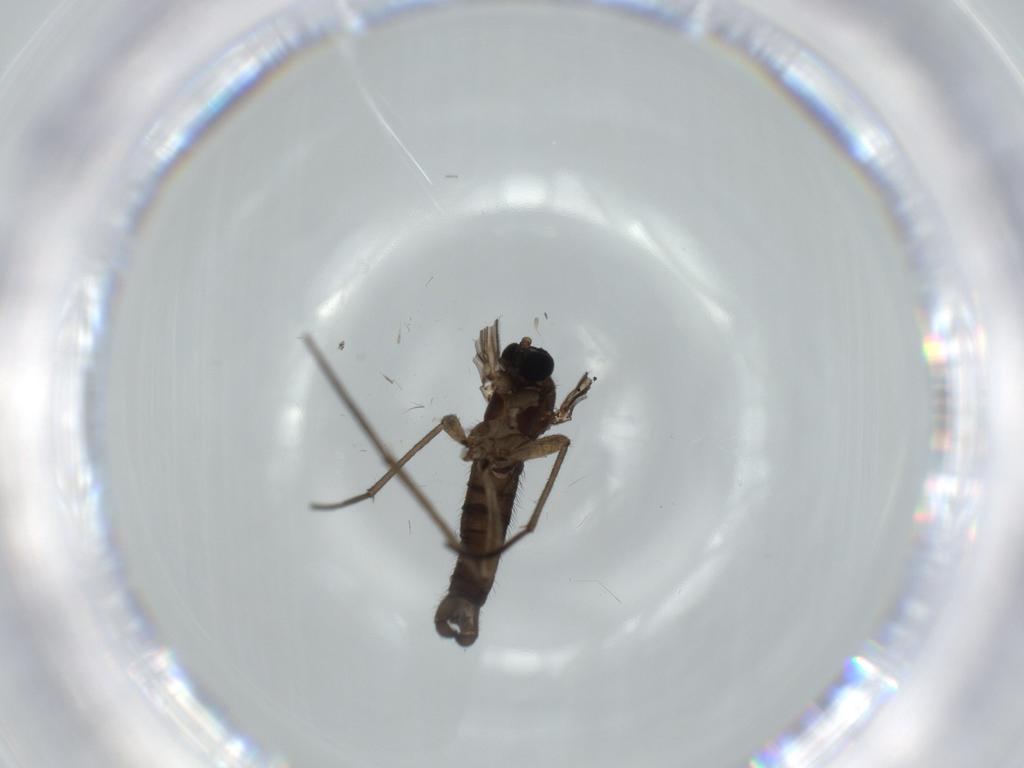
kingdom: Animalia
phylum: Arthropoda
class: Insecta
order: Diptera
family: Sciaridae
